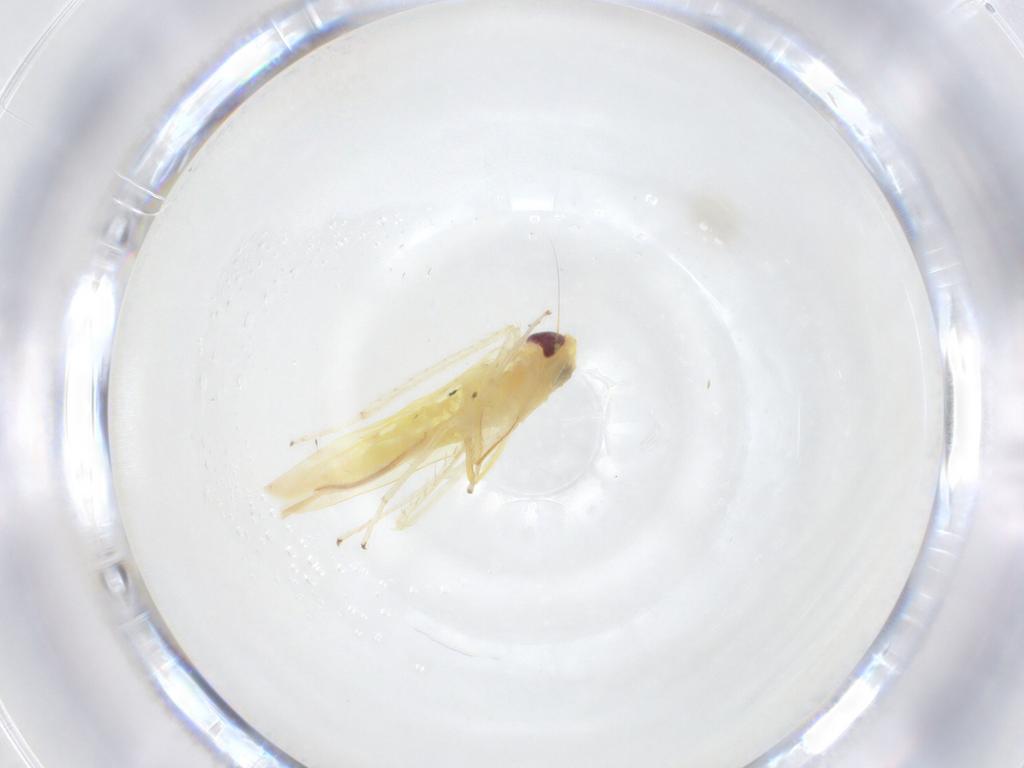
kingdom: Animalia
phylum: Arthropoda
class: Insecta
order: Hemiptera
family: Cicadellidae
